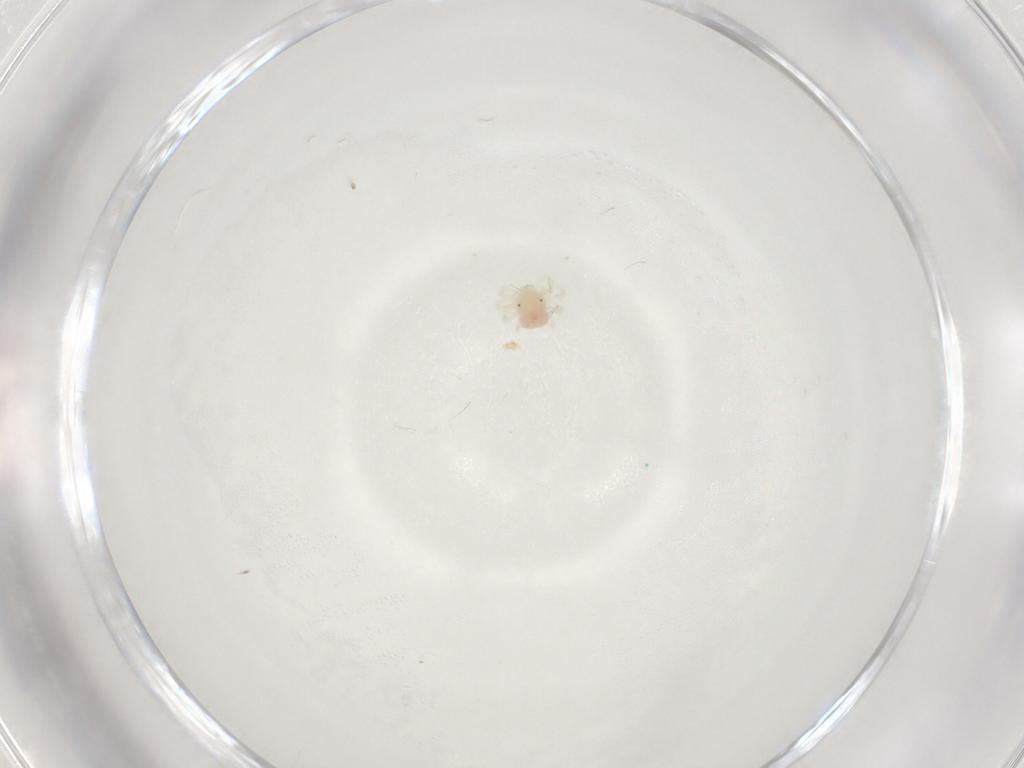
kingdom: Animalia
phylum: Arthropoda
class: Arachnida
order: Trombidiformes
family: Anystidae
